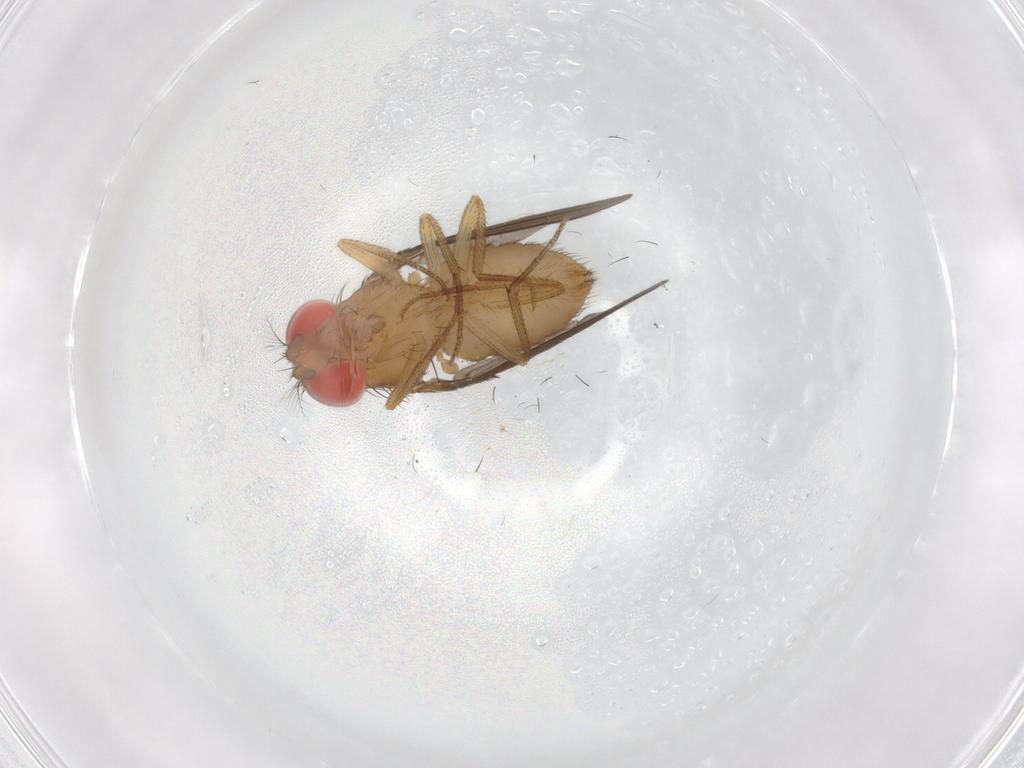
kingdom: Animalia
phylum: Arthropoda
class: Insecta
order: Diptera
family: Drosophilidae
